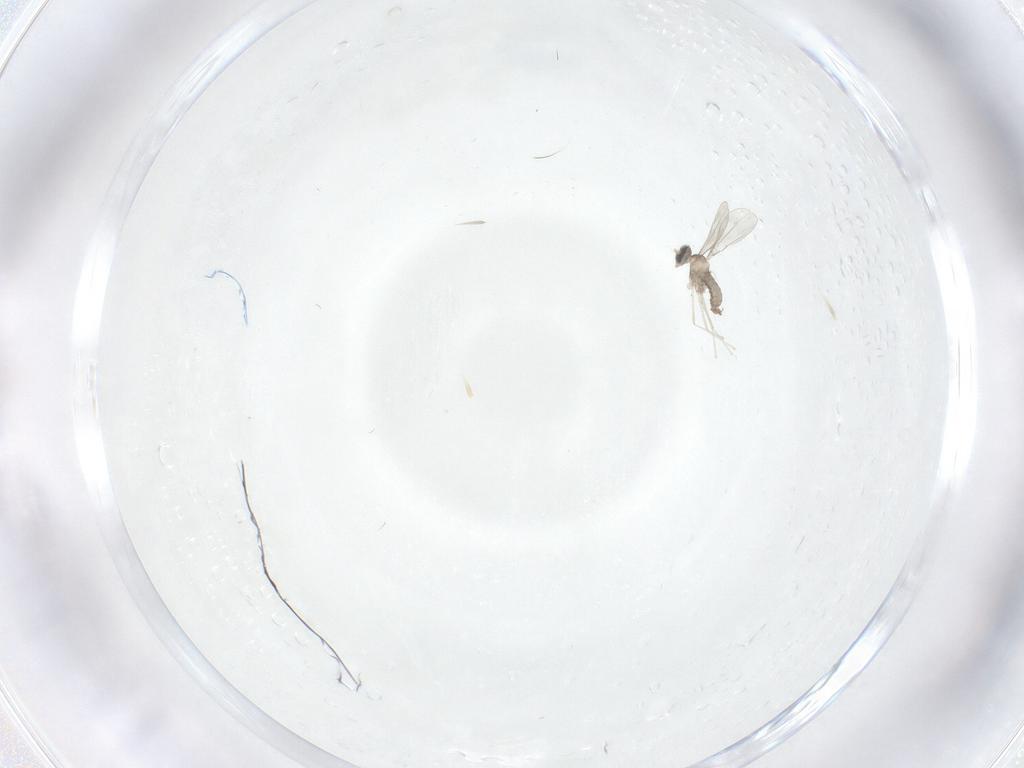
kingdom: Animalia
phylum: Arthropoda
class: Insecta
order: Diptera
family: Cecidomyiidae
